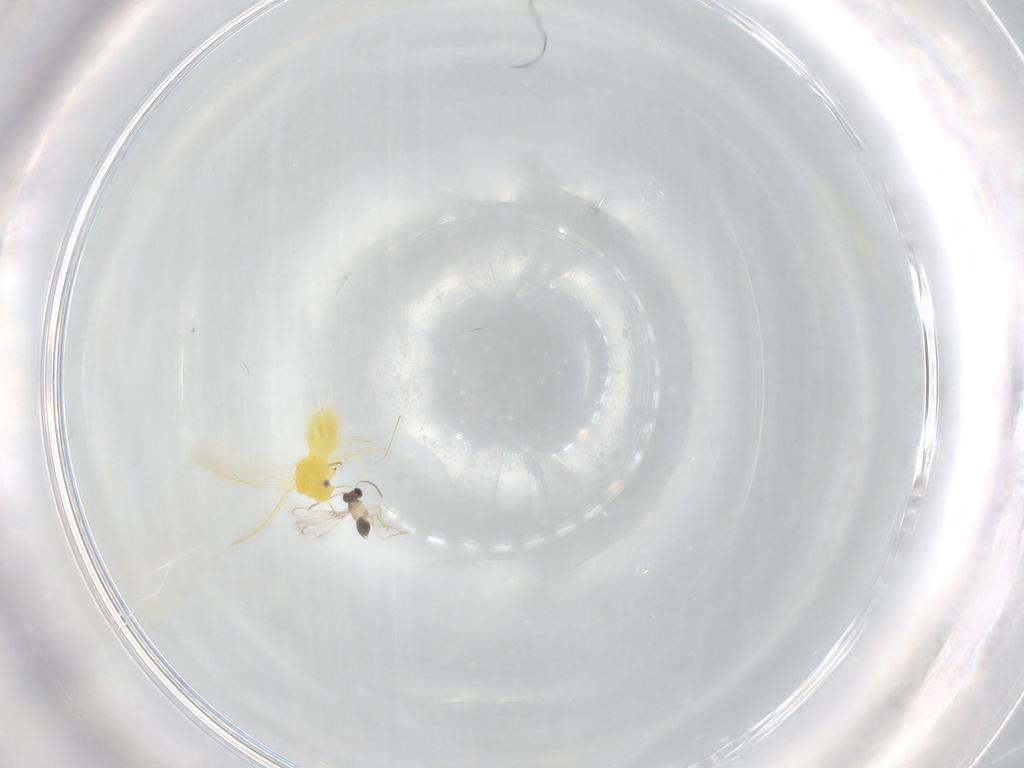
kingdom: Animalia
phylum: Arthropoda
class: Insecta
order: Hemiptera
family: Aleyrodidae
